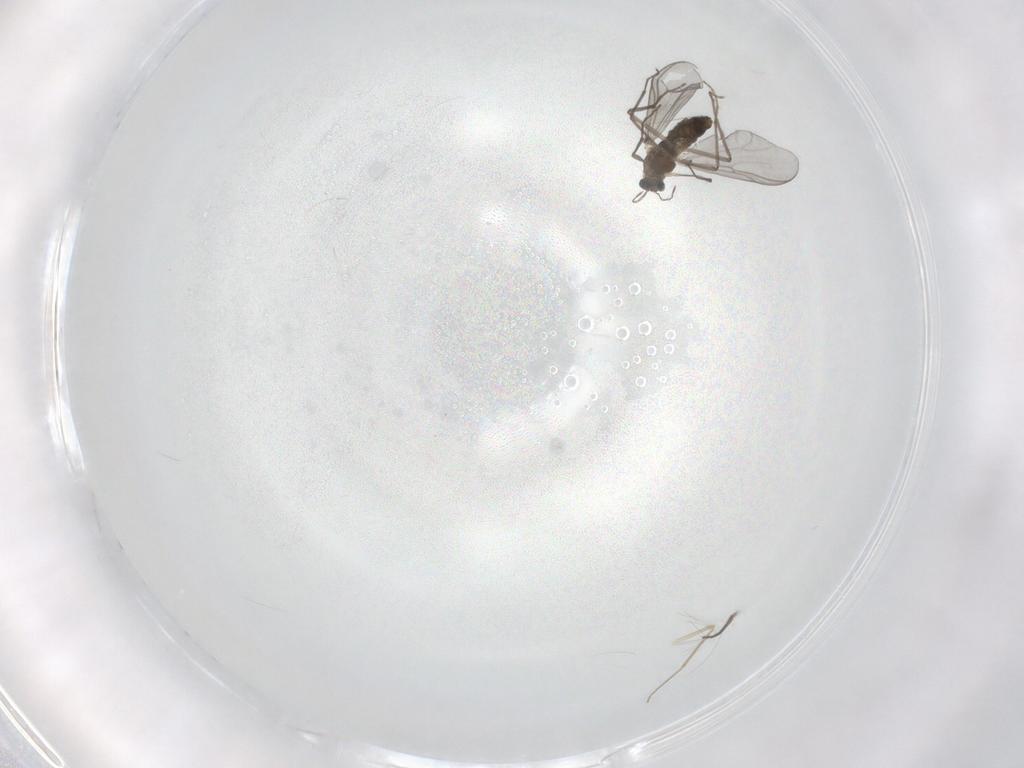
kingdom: Animalia
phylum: Arthropoda
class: Insecta
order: Diptera
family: Chironomidae
